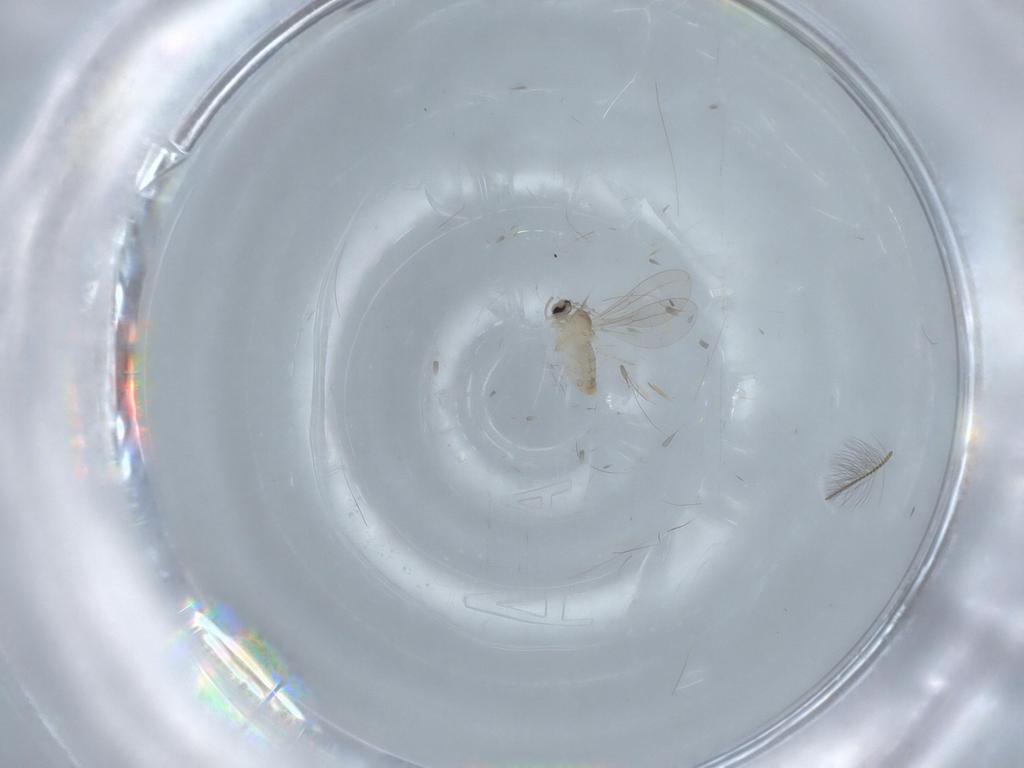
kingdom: Animalia
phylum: Arthropoda
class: Insecta
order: Diptera
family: Cecidomyiidae
